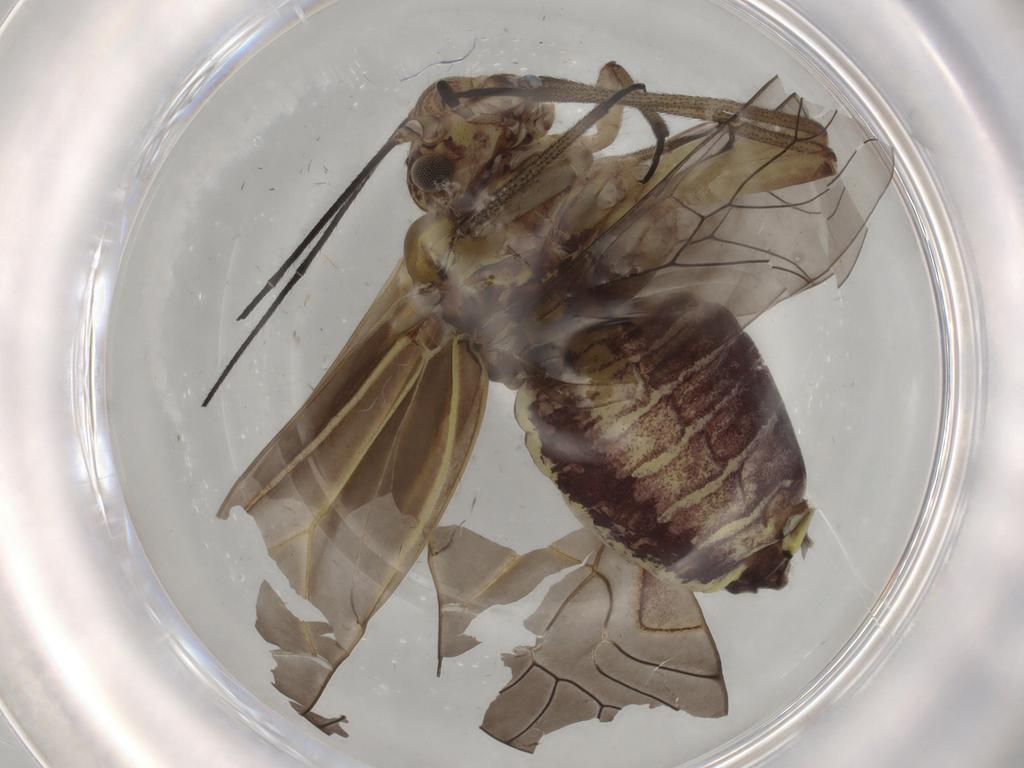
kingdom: Animalia
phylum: Arthropoda
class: Insecta
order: Psocodea
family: Psocidae
